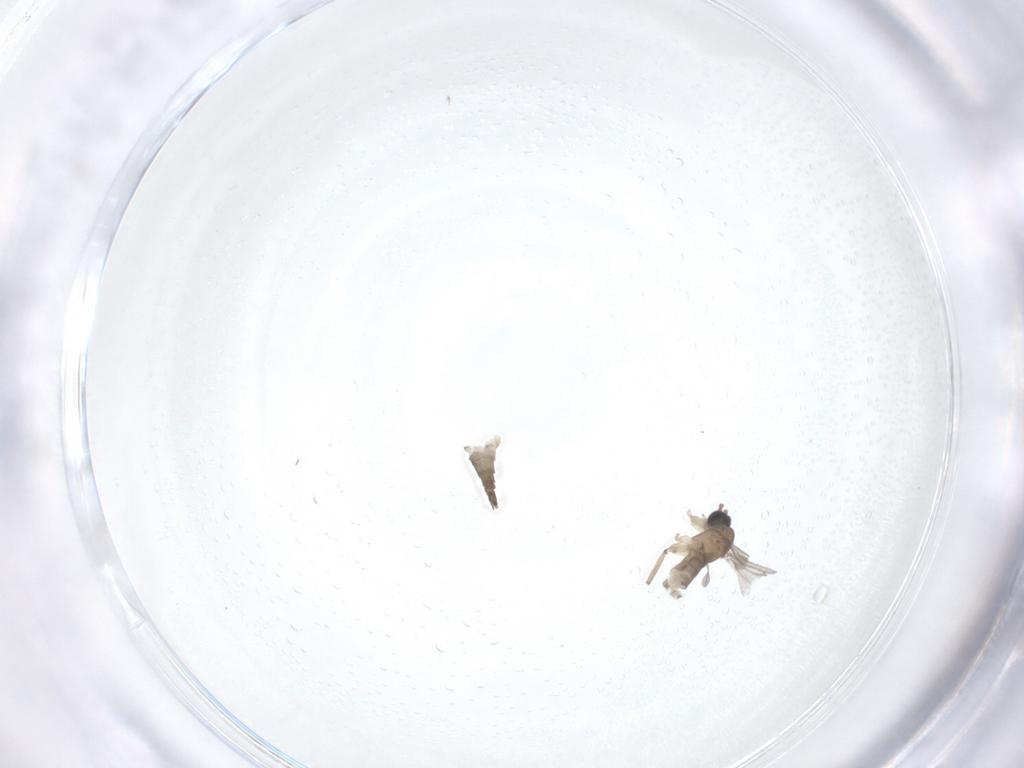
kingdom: Animalia
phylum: Arthropoda
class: Insecta
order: Diptera
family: Sciaridae
